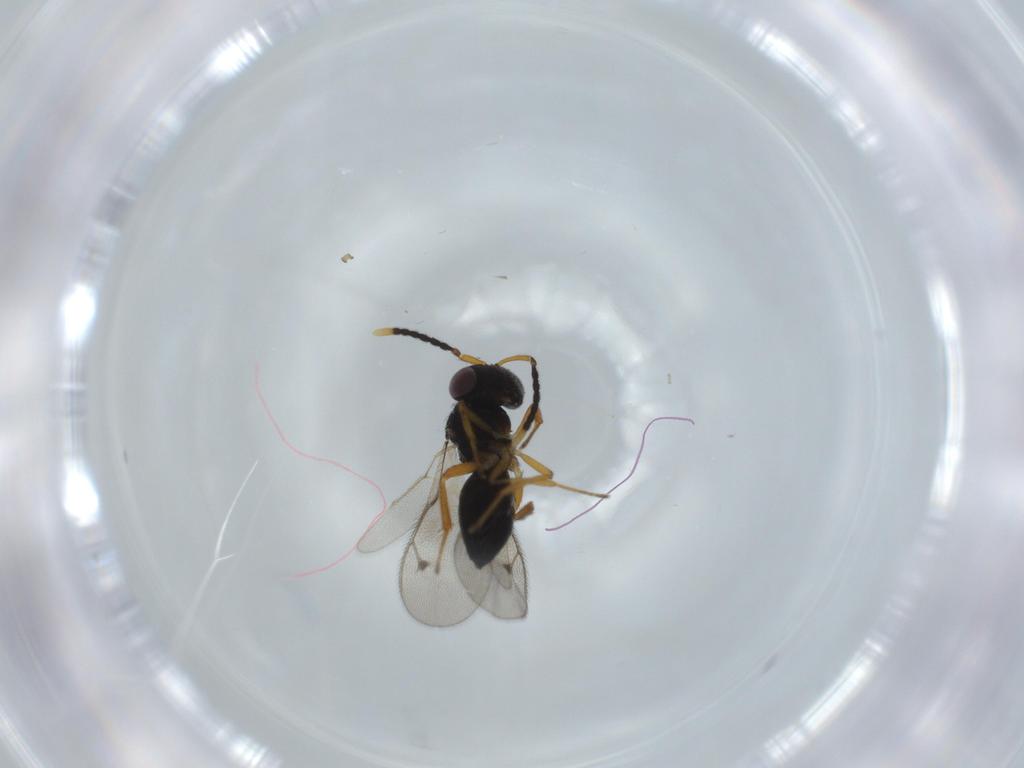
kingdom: Animalia
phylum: Arthropoda
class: Insecta
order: Hymenoptera
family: Aphelinidae
